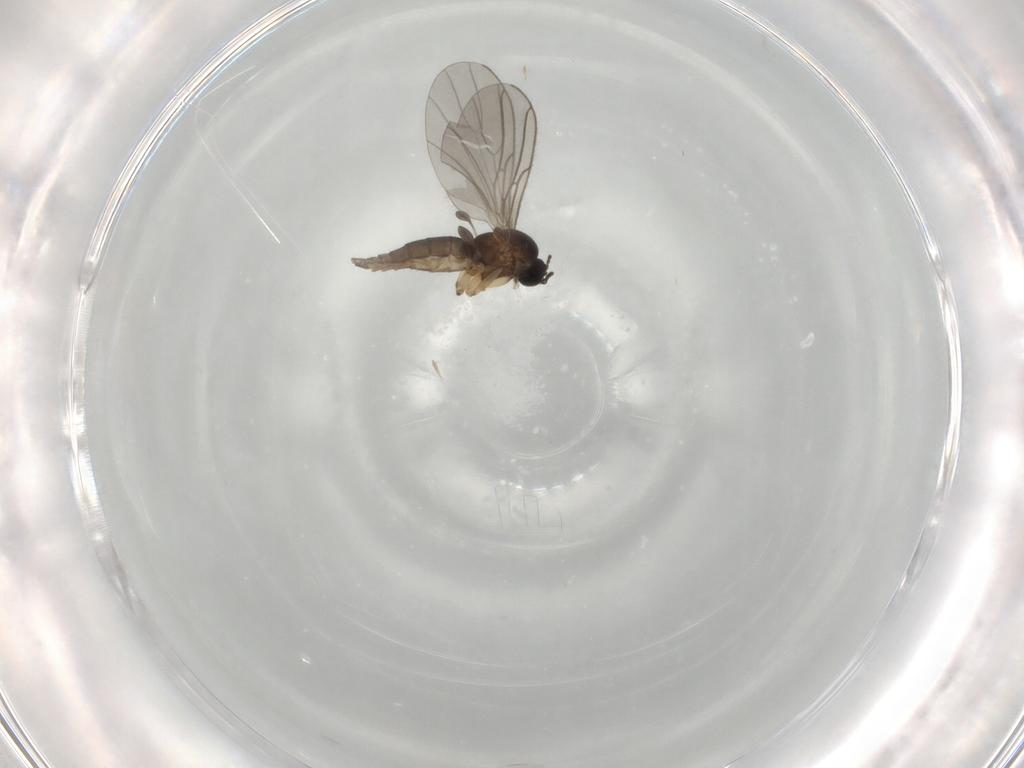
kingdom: Animalia
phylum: Arthropoda
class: Insecta
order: Diptera
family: Sciaridae
